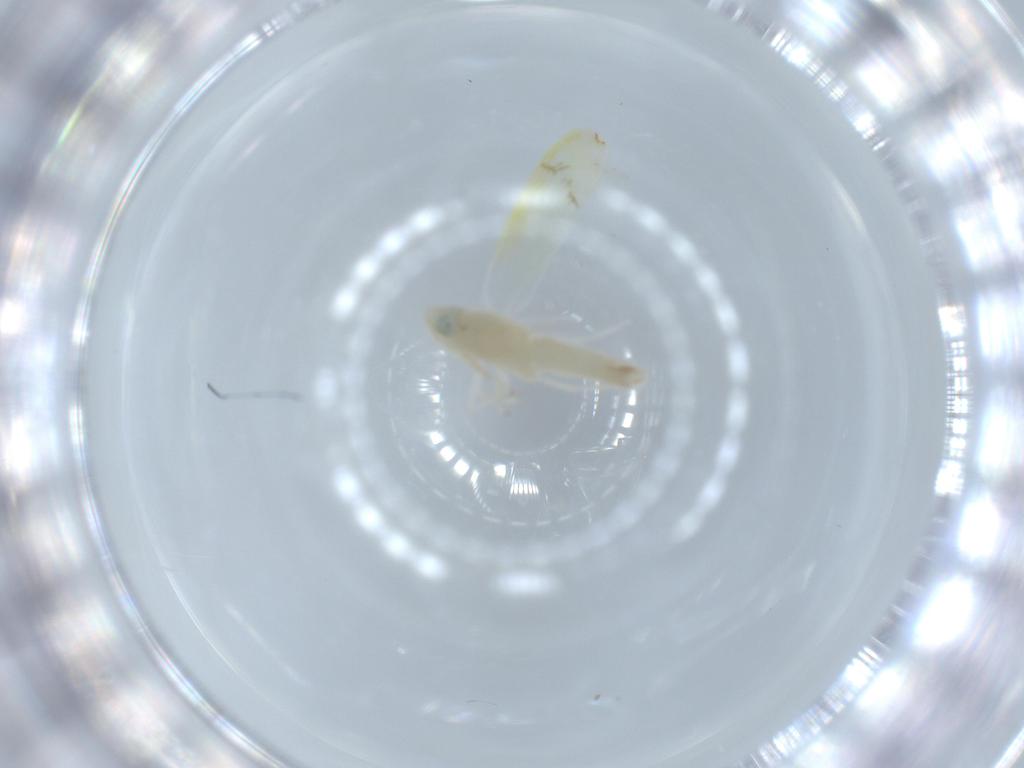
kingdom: Animalia
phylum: Arthropoda
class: Insecta
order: Hemiptera
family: Cicadellidae
